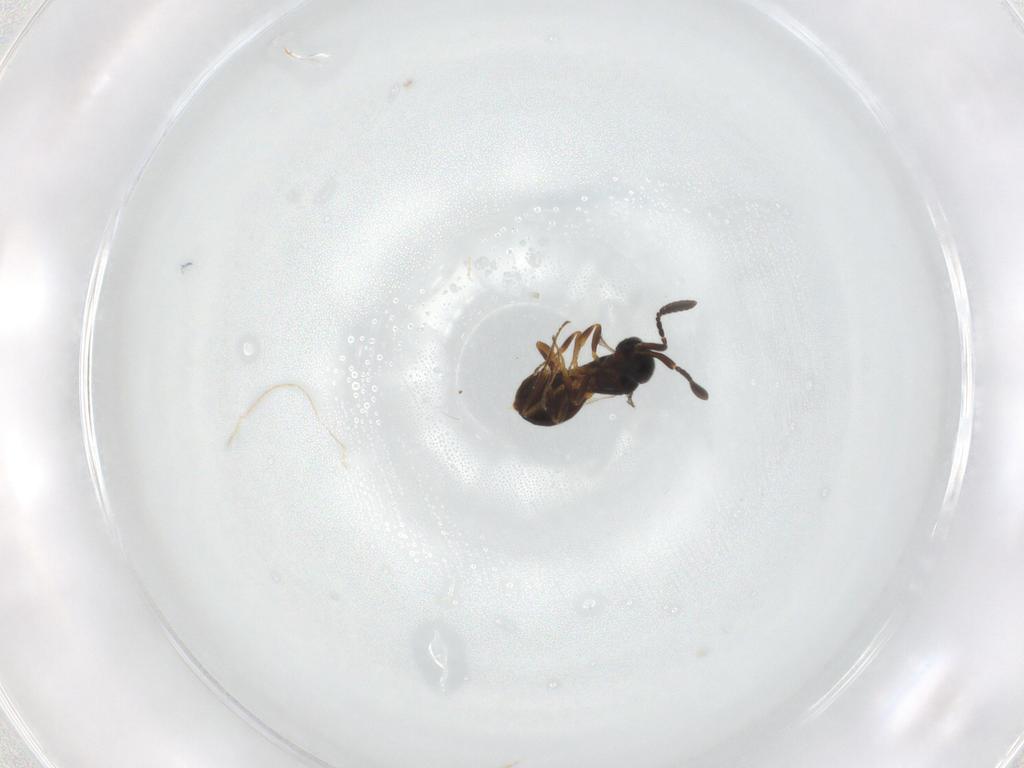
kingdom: Animalia
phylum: Arthropoda
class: Insecta
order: Hymenoptera
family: Scelionidae
